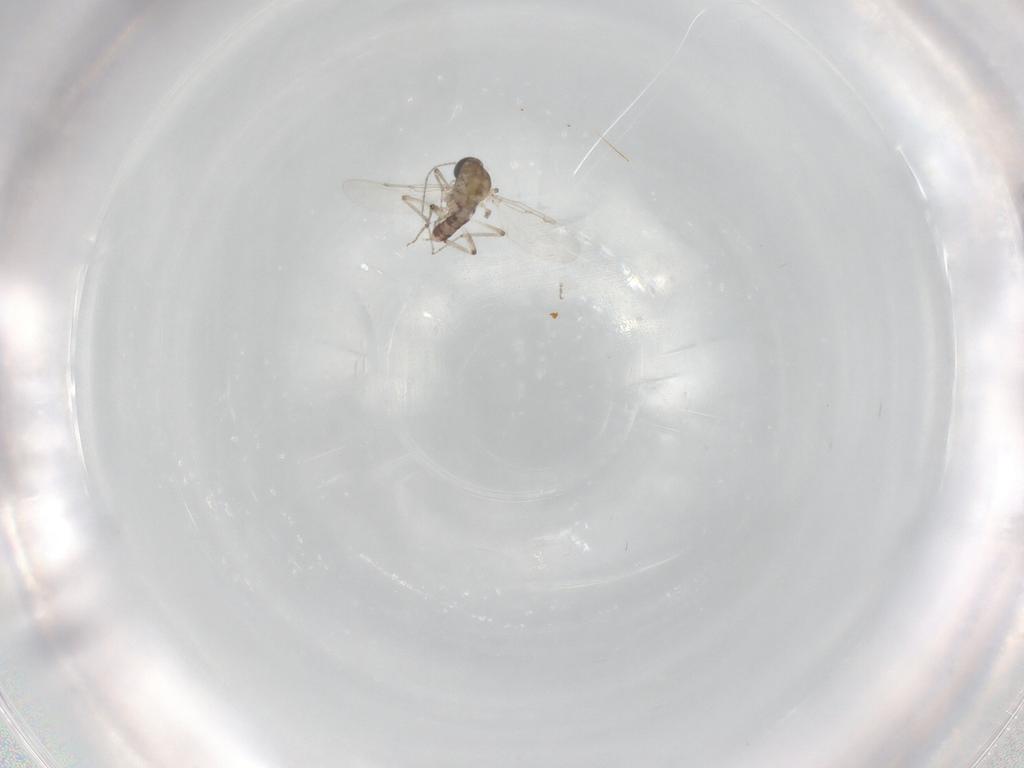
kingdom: Animalia
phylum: Arthropoda
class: Insecta
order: Diptera
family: Ceratopogonidae
